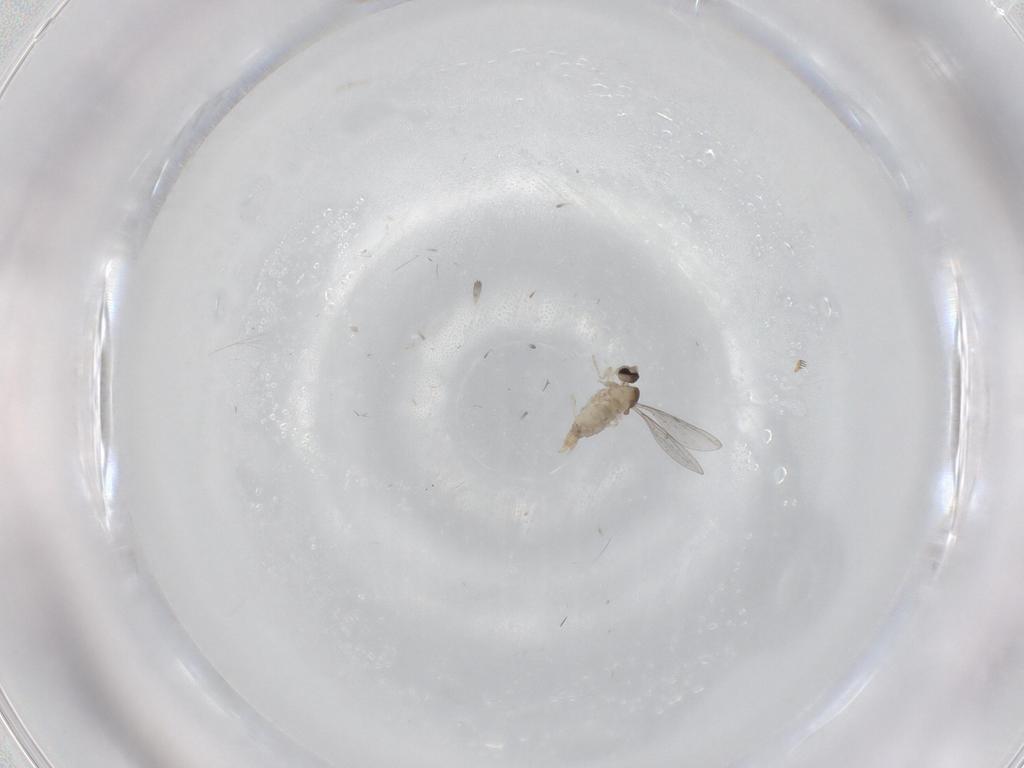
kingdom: Animalia
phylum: Arthropoda
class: Insecta
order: Diptera
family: Cecidomyiidae
